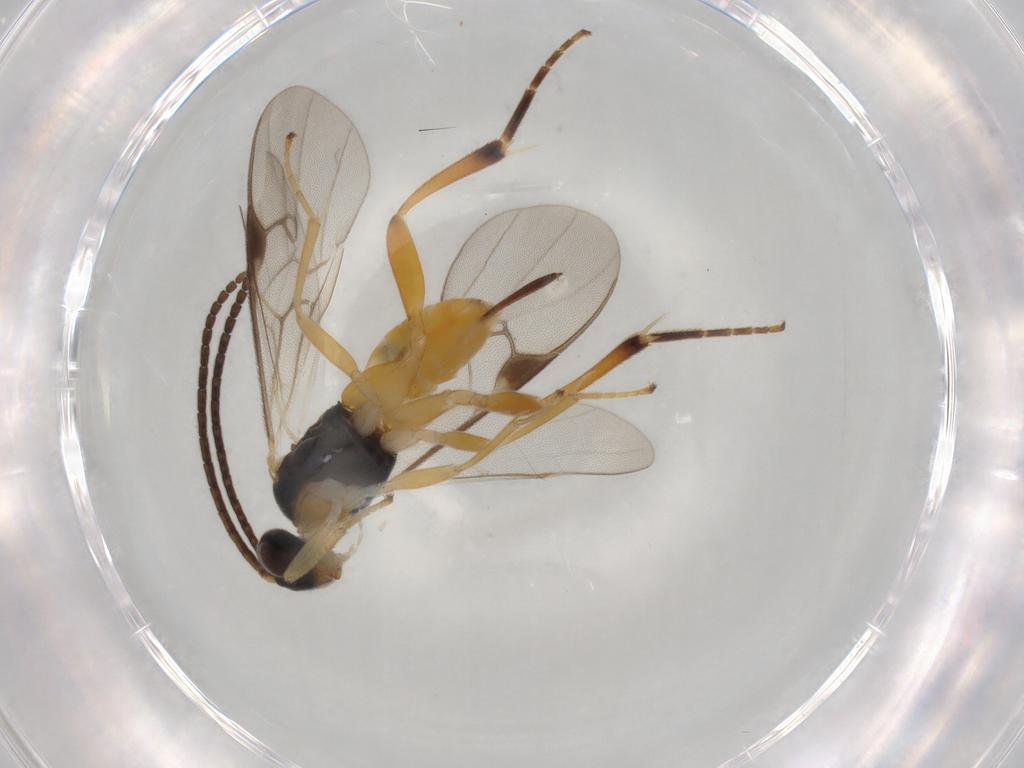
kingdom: Animalia
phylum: Arthropoda
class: Insecta
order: Hymenoptera
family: Braconidae
